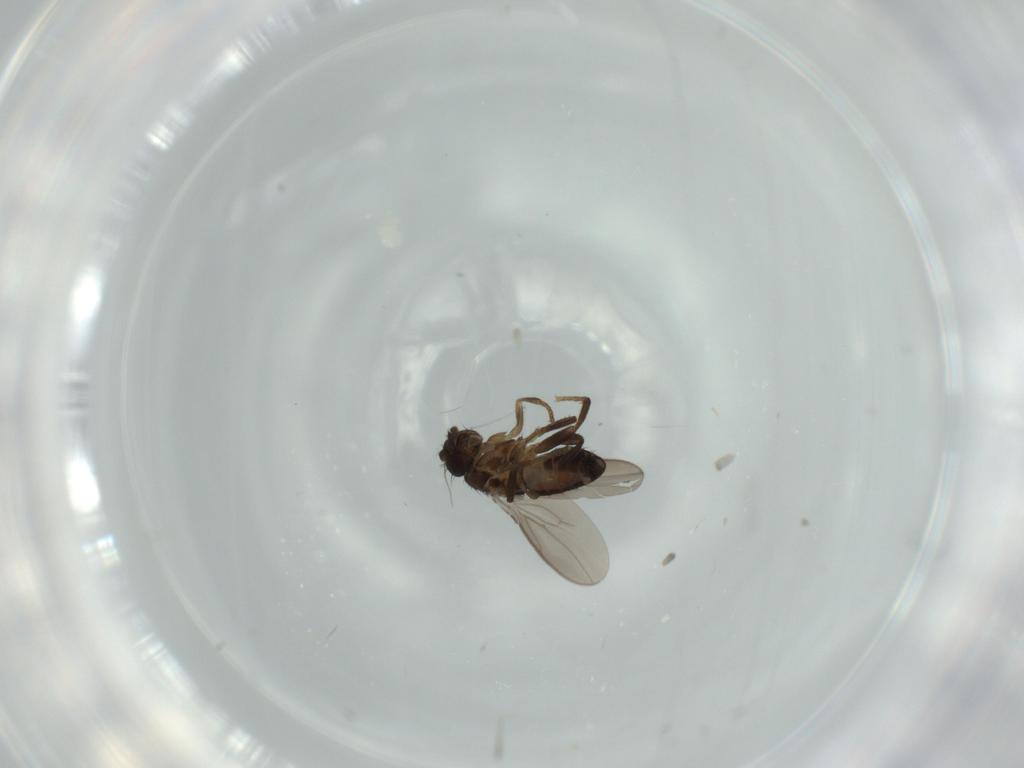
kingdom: Animalia
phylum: Arthropoda
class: Insecta
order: Diptera
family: Sphaeroceridae
